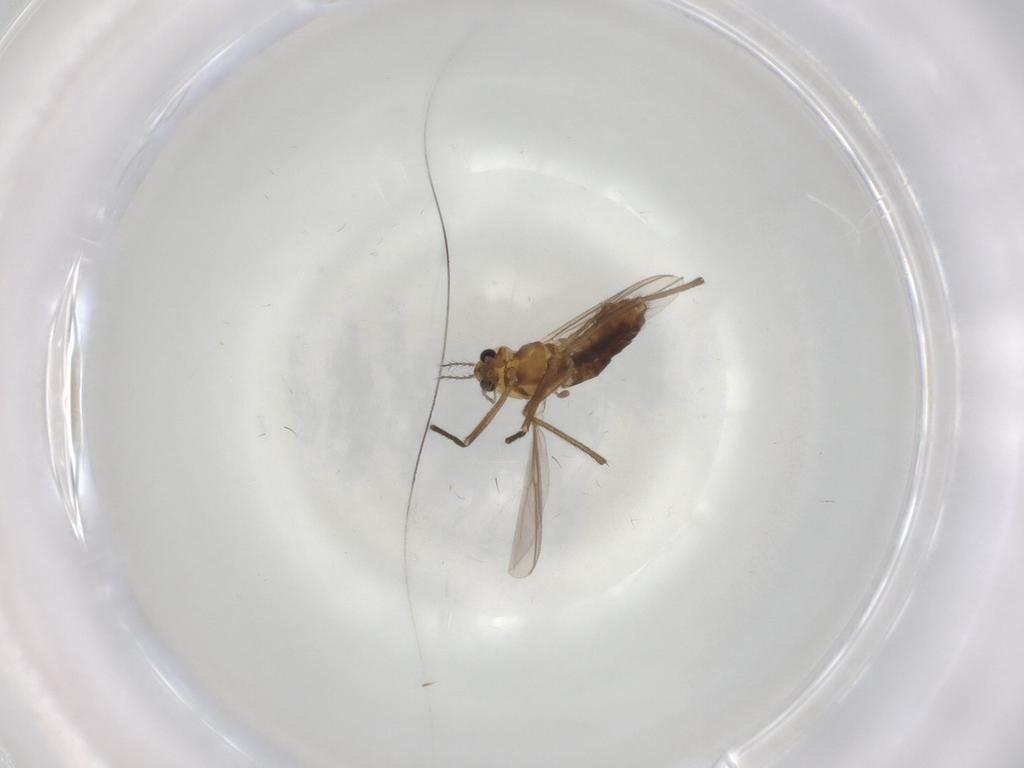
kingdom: Animalia
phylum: Arthropoda
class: Insecta
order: Diptera
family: Chironomidae
